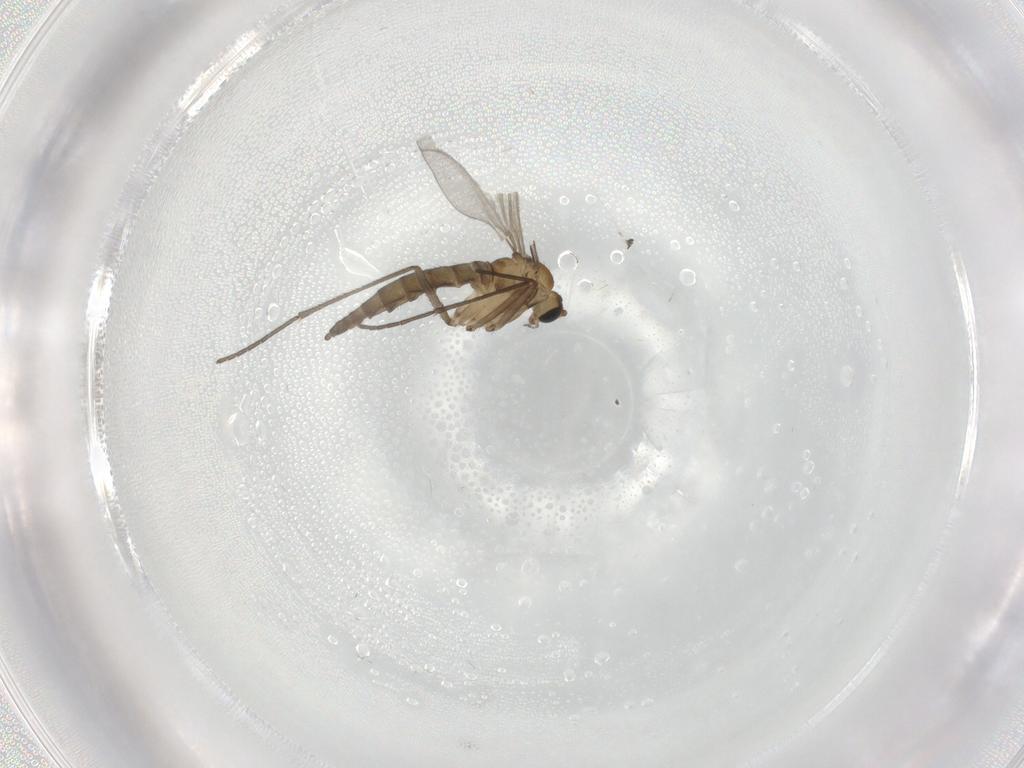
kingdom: Animalia
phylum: Arthropoda
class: Insecta
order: Diptera
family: Sciaridae
